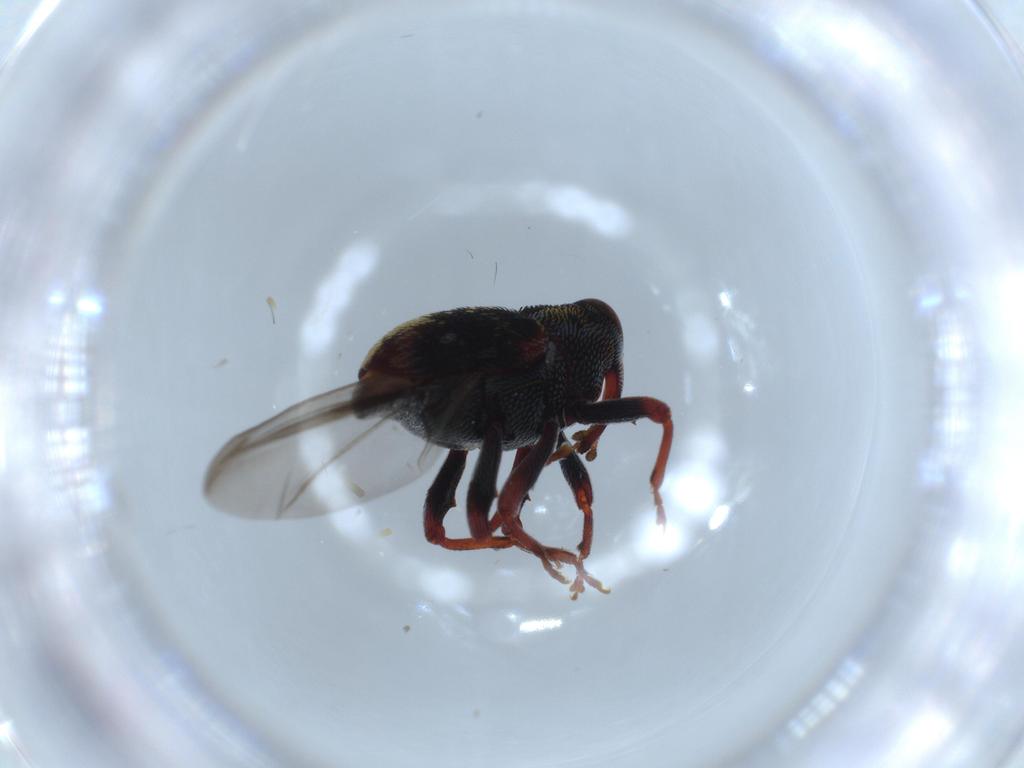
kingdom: Animalia
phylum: Arthropoda
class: Insecta
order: Coleoptera
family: Curculionidae
